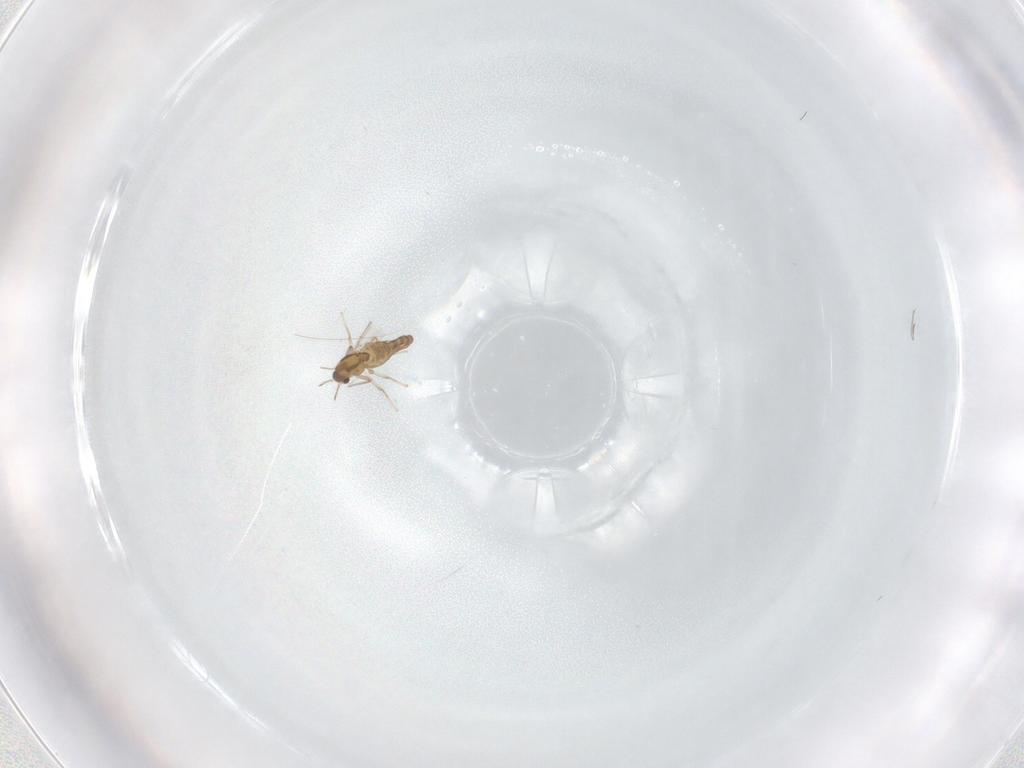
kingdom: Animalia
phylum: Arthropoda
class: Insecta
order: Diptera
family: Chironomidae
